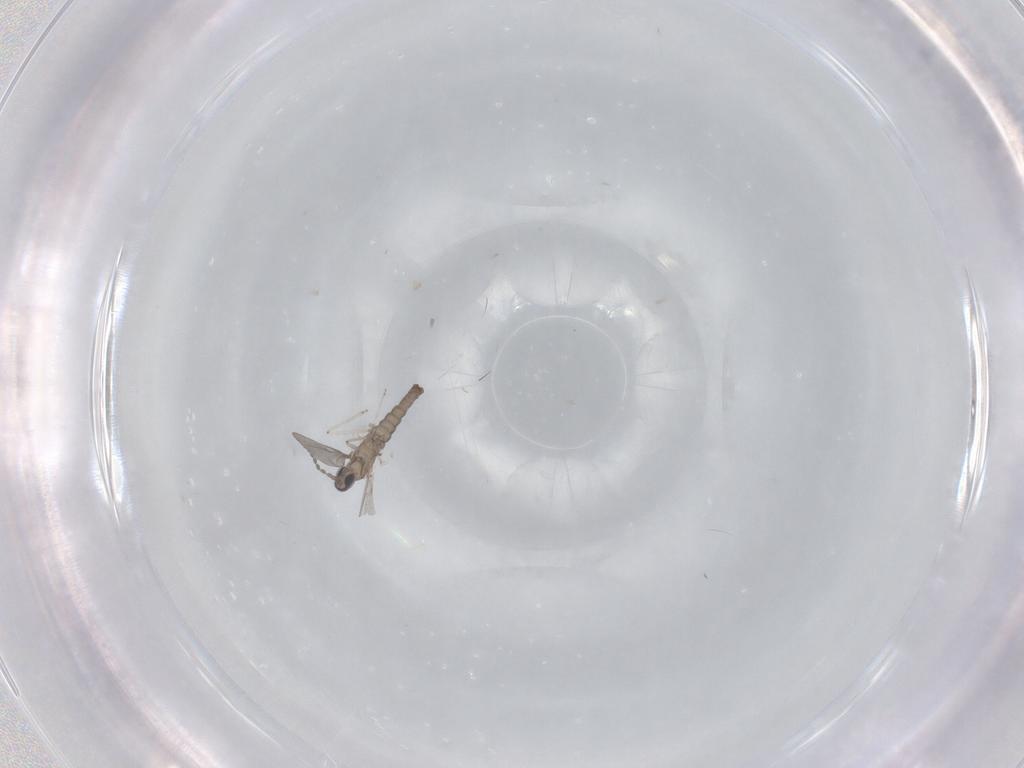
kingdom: Animalia
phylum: Arthropoda
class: Insecta
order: Diptera
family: Cecidomyiidae
